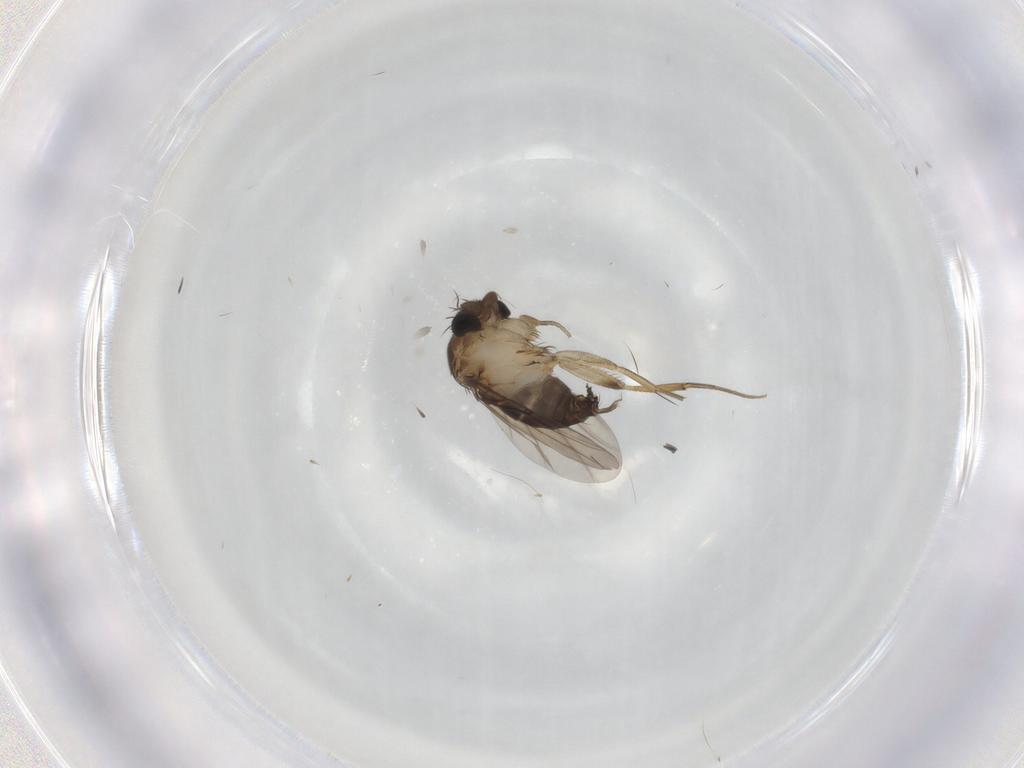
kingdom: Animalia
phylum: Arthropoda
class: Insecta
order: Diptera
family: Phoridae
